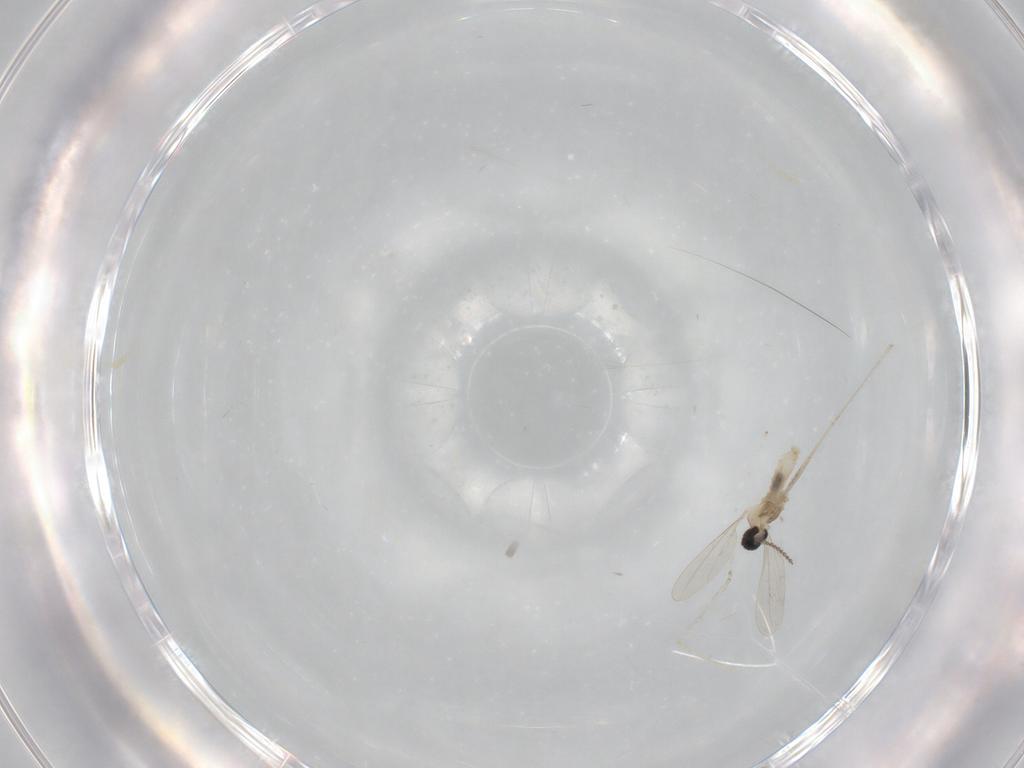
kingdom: Animalia
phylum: Arthropoda
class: Insecta
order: Diptera
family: Cecidomyiidae
